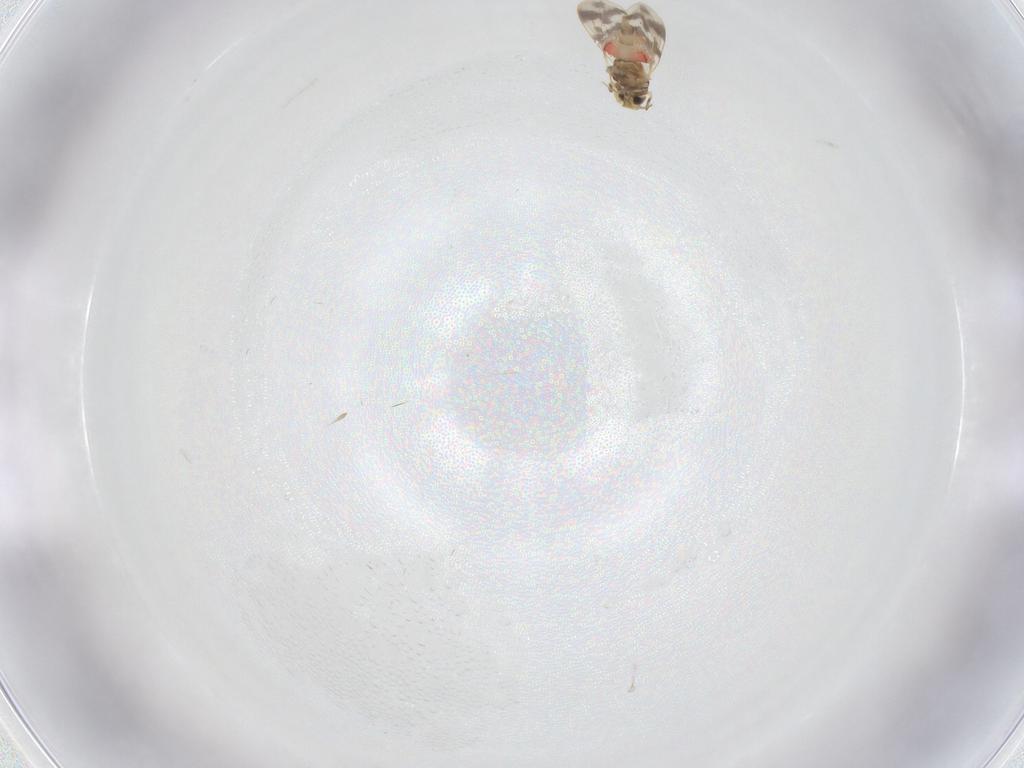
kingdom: Animalia
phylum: Arthropoda
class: Insecta
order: Hemiptera
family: Aleyrodidae
